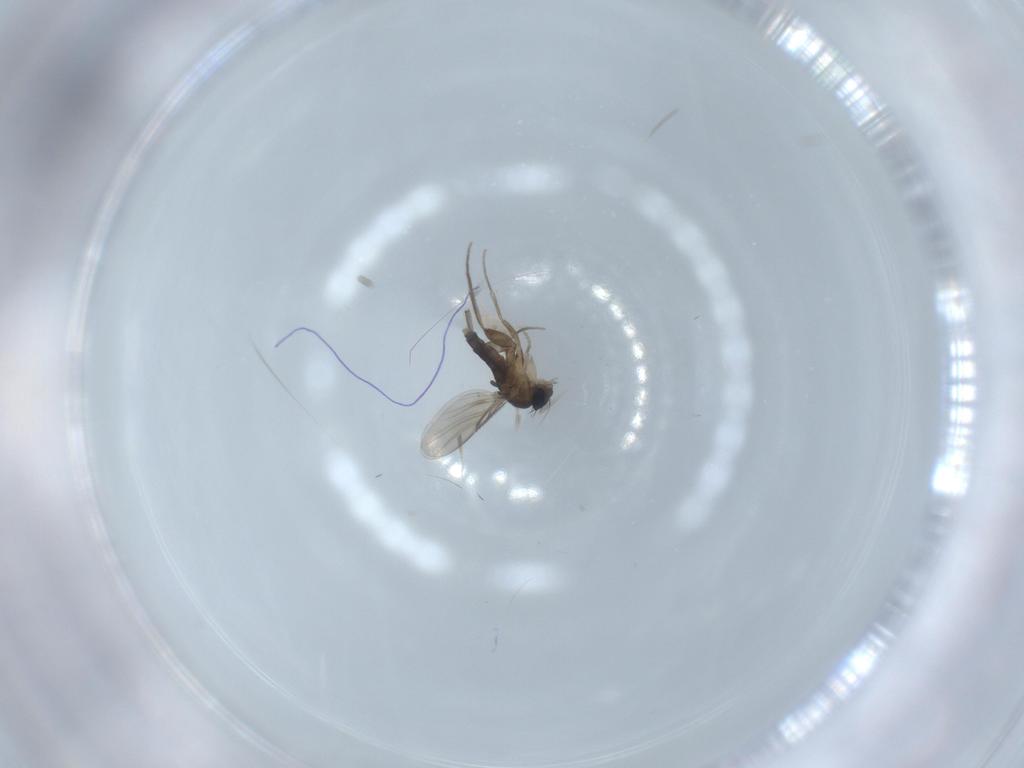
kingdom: Animalia
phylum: Arthropoda
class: Insecta
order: Diptera
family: Phoridae
